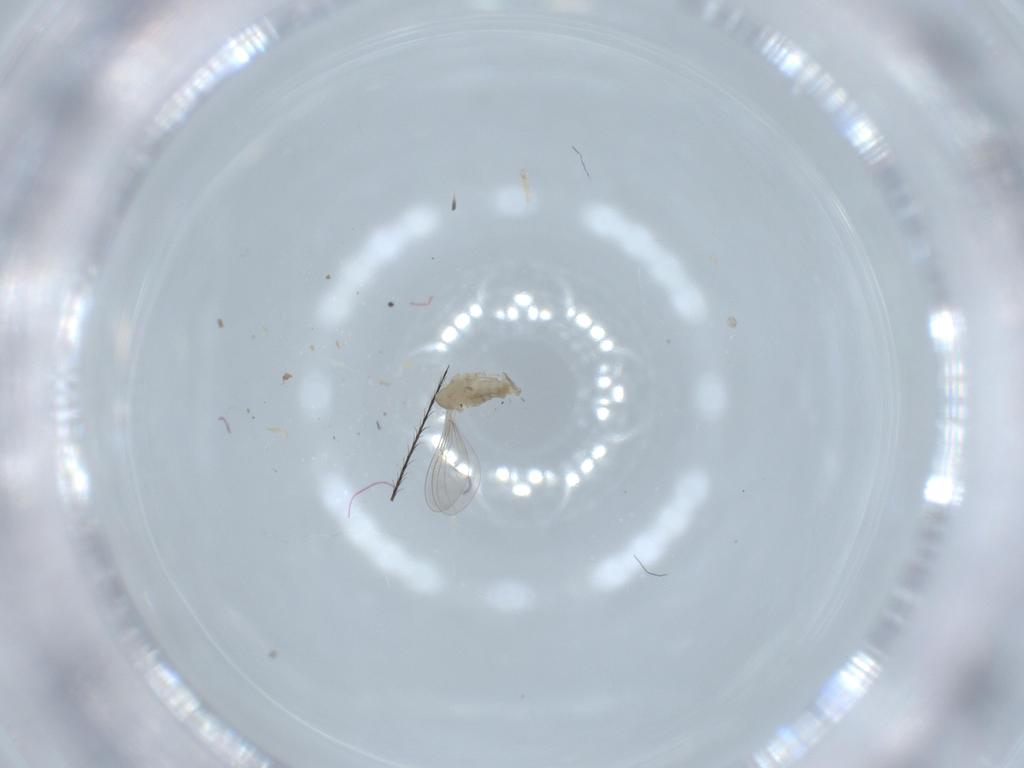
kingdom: Animalia
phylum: Arthropoda
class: Insecta
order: Diptera
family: Cecidomyiidae
